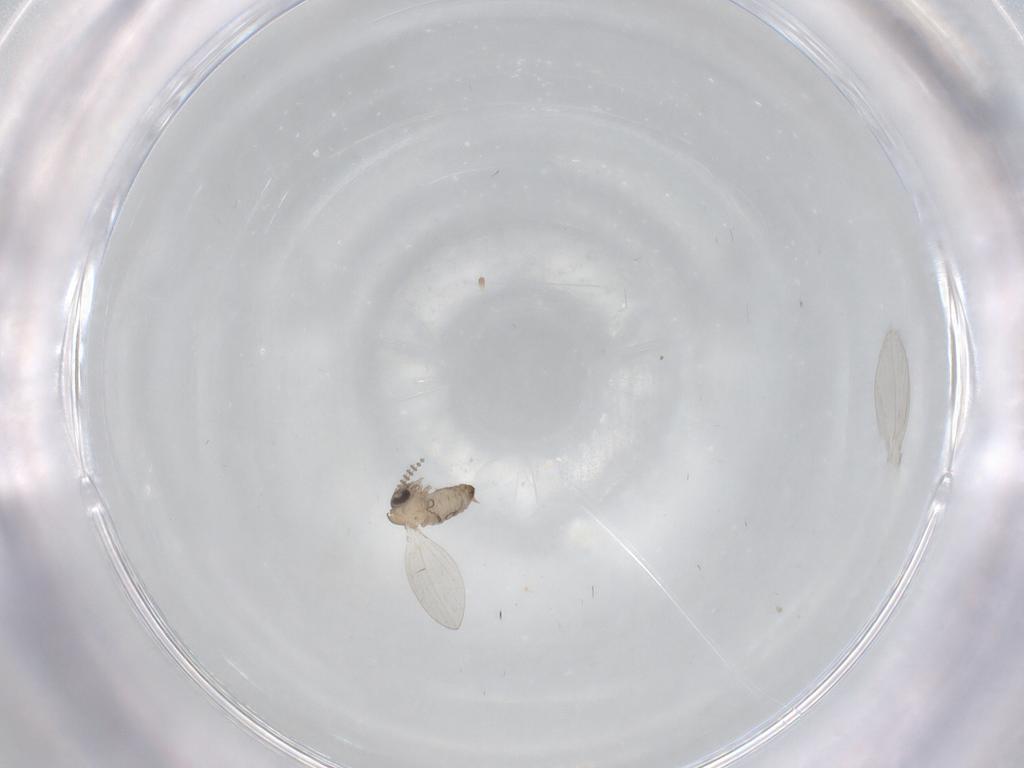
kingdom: Animalia
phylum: Arthropoda
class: Insecta
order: Diptera
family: Psychodidae
